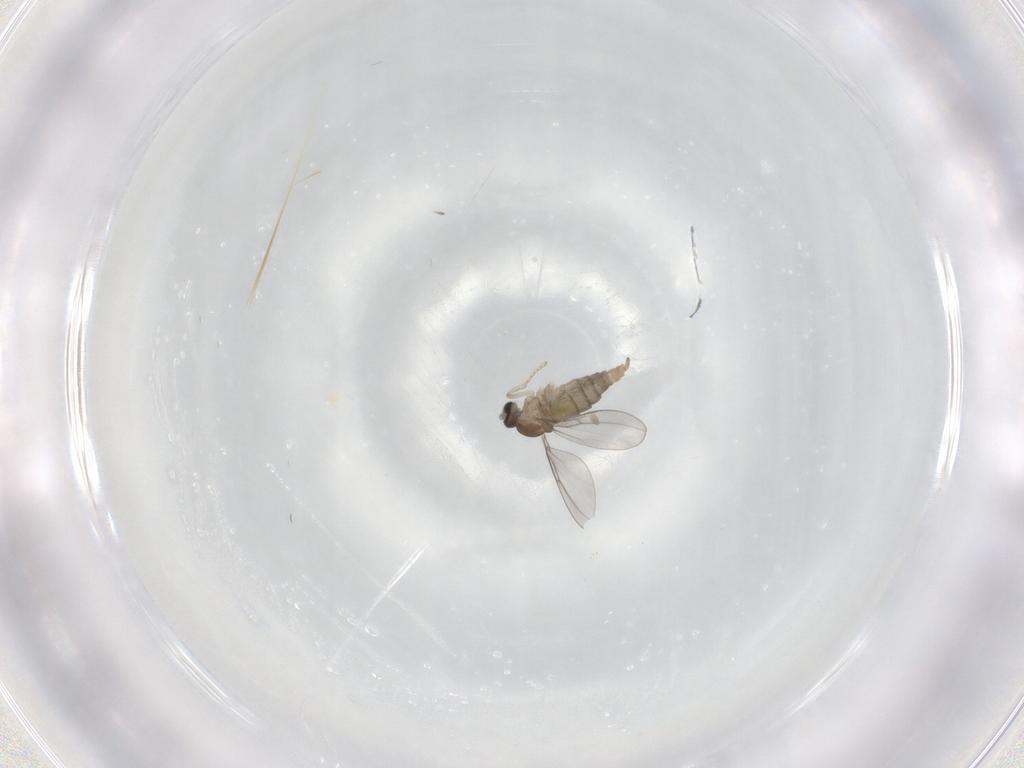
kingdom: Animalia
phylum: Arthropoda
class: Insecta
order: Diptera
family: Cecidomyiidae
